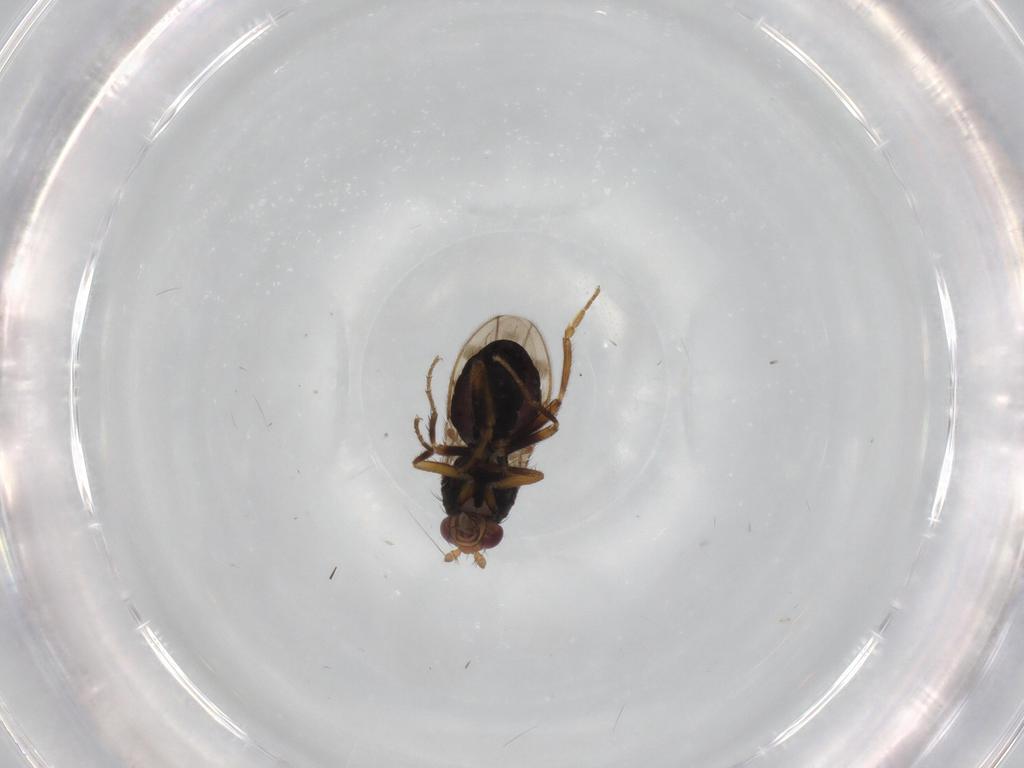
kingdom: Animalia
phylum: Arthropoda
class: Insecta
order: Diptera
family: Sphaeroceridae
